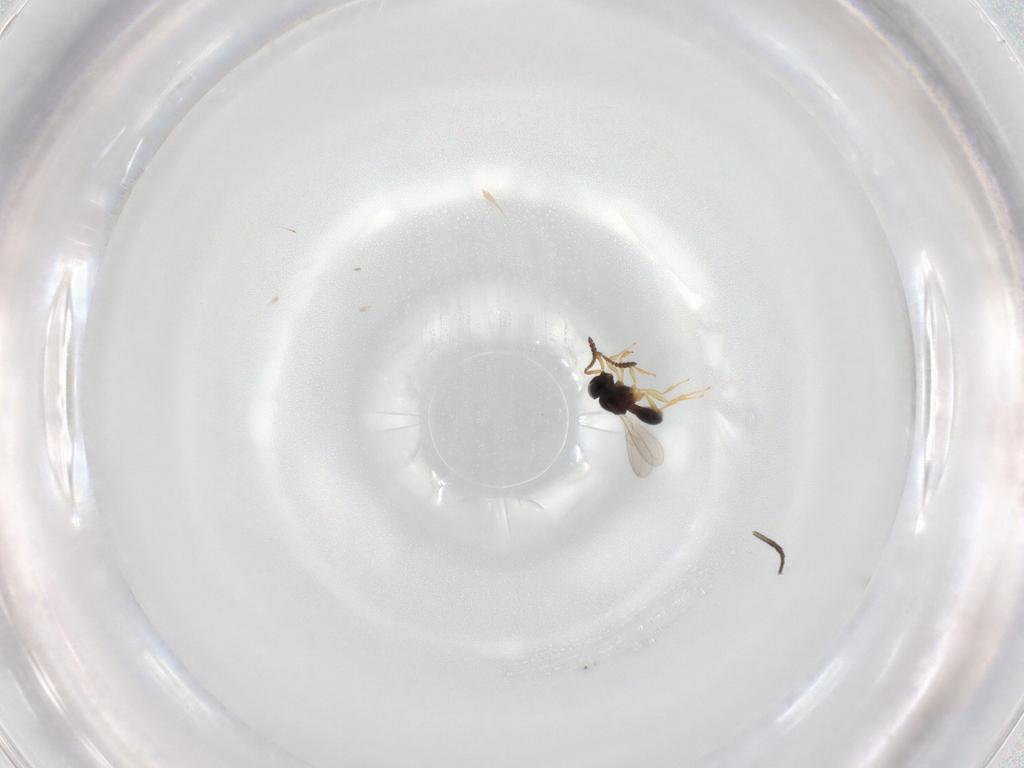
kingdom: Animalia
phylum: Arthropoda
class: Insecta
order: Hymenoptera
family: Scelionidae
